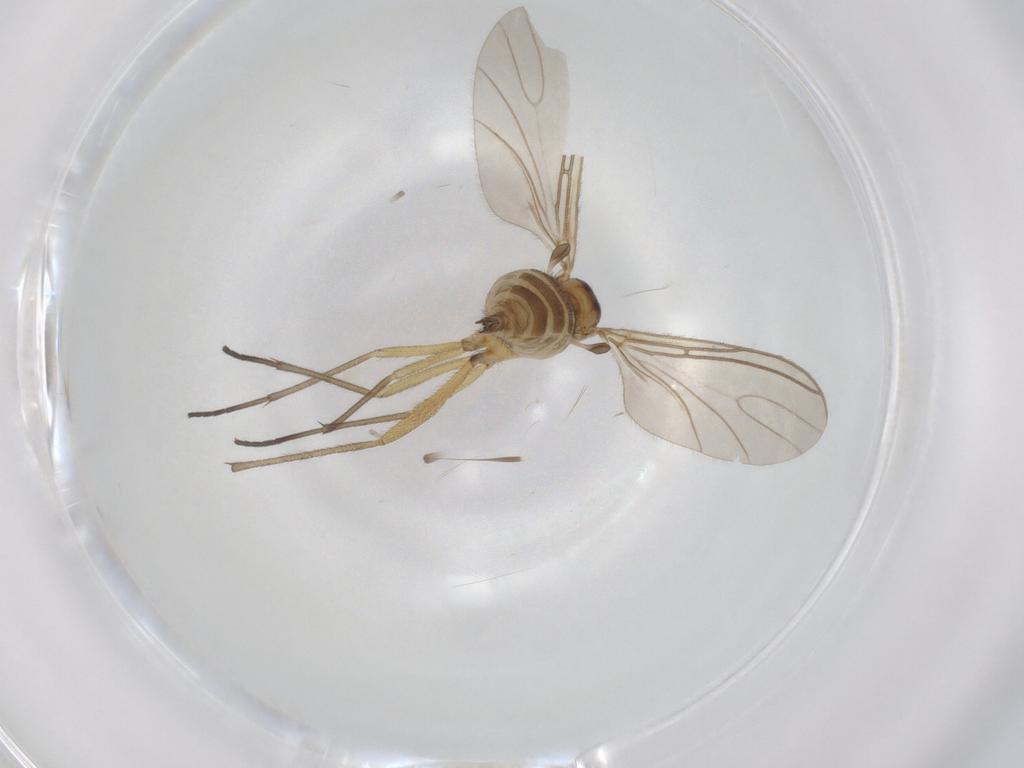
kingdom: Animalia
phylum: Arthropoda
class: Insecta
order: Diptera
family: Sciaridae
